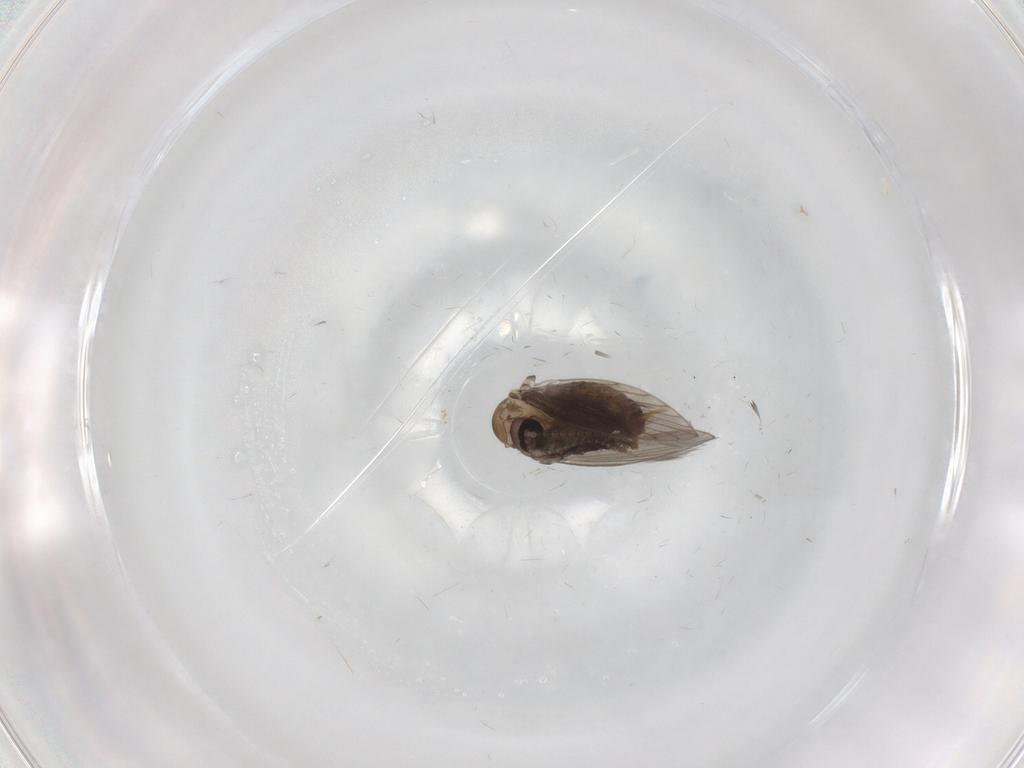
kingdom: Animalia
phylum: Arthropoda
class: Insecta
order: Diptera
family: Psychodidae
